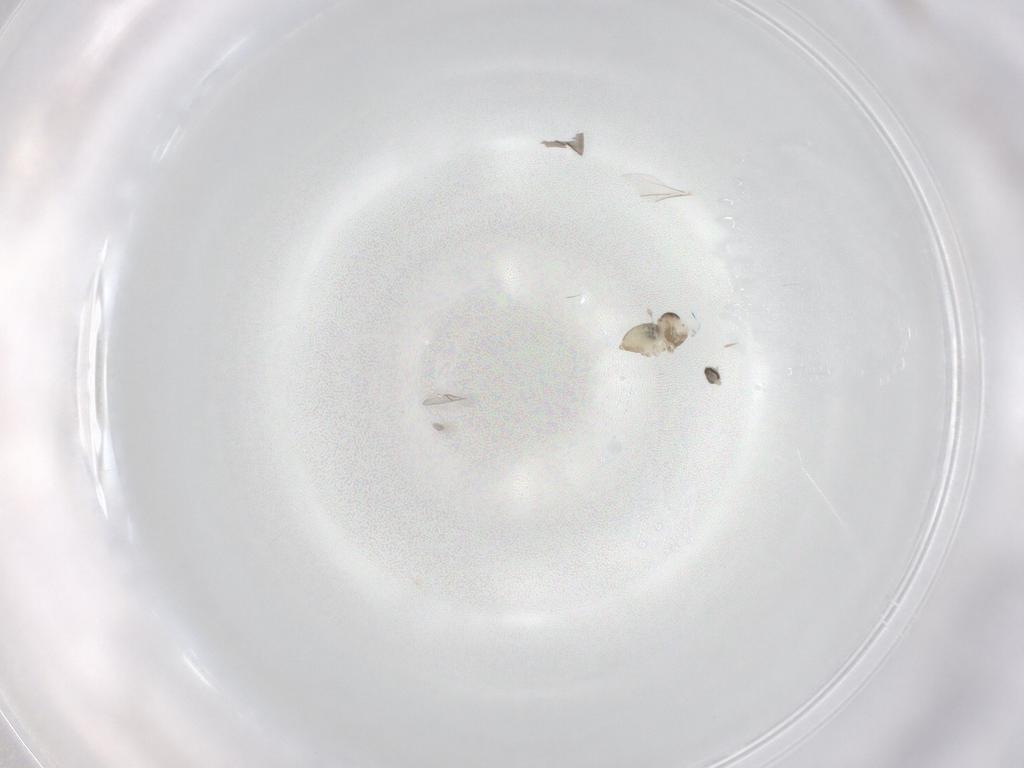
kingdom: Animalia
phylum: Arthropoda
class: Insecta
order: Diptera
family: Cecidomyiidae
